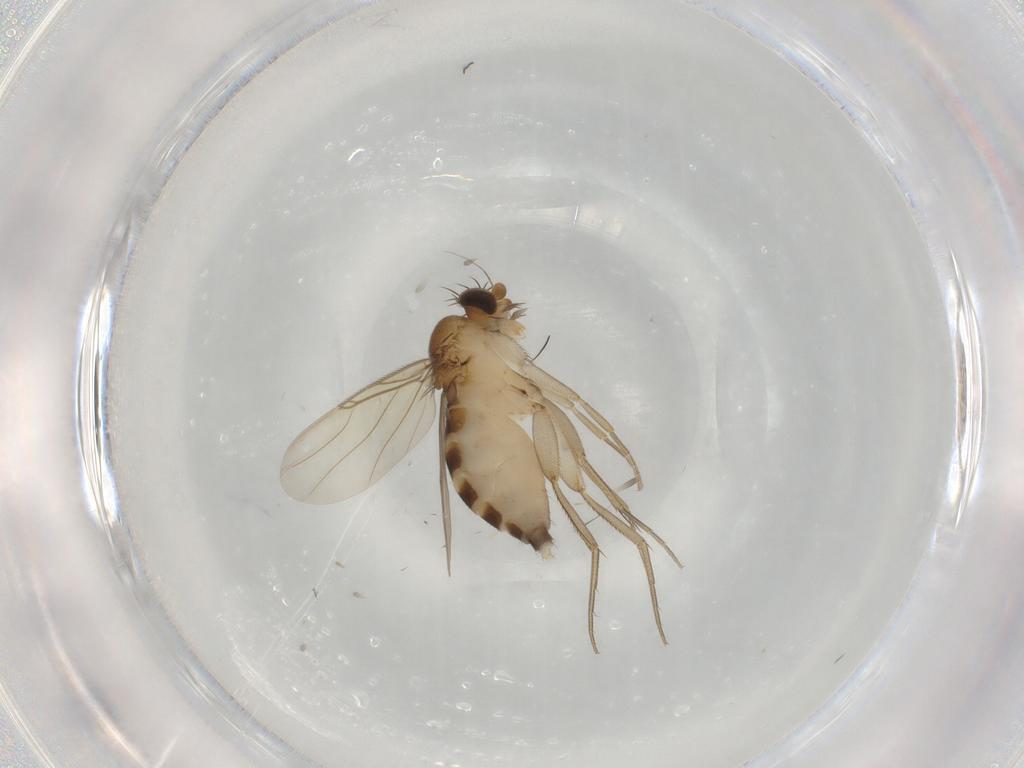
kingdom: Animalia
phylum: Arthropoda
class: Insecta
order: Diptera
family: Phoridae
